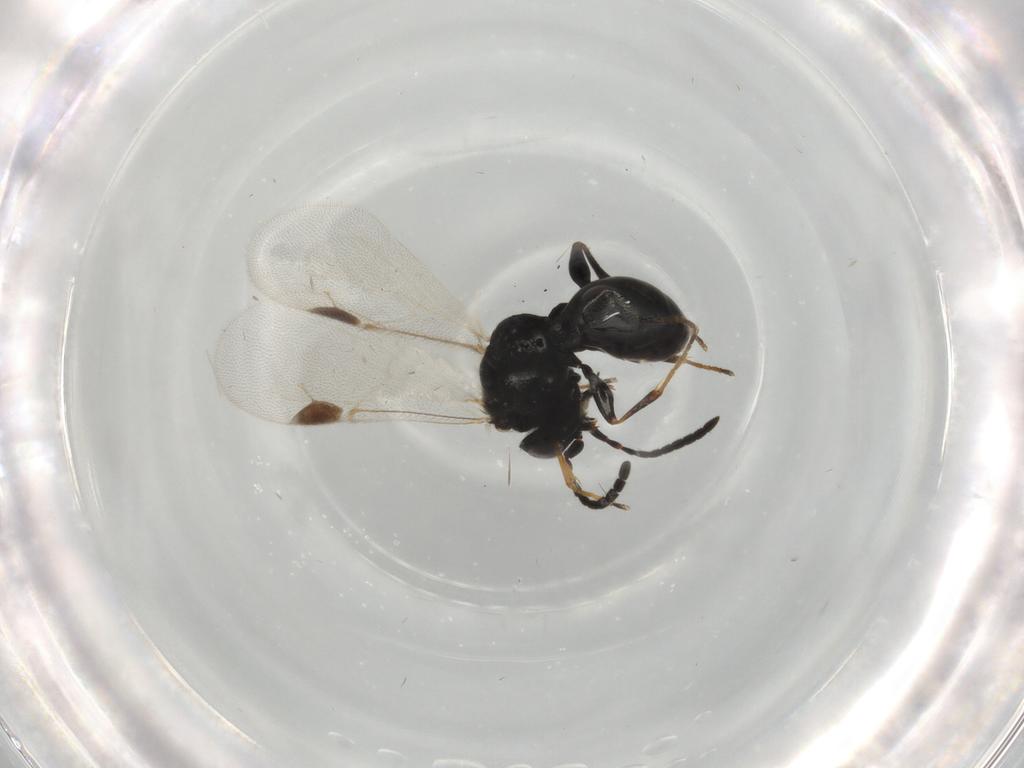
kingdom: Animalia
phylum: Arthropoda
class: Insecta
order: Hymenoptera
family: Dryinidae
